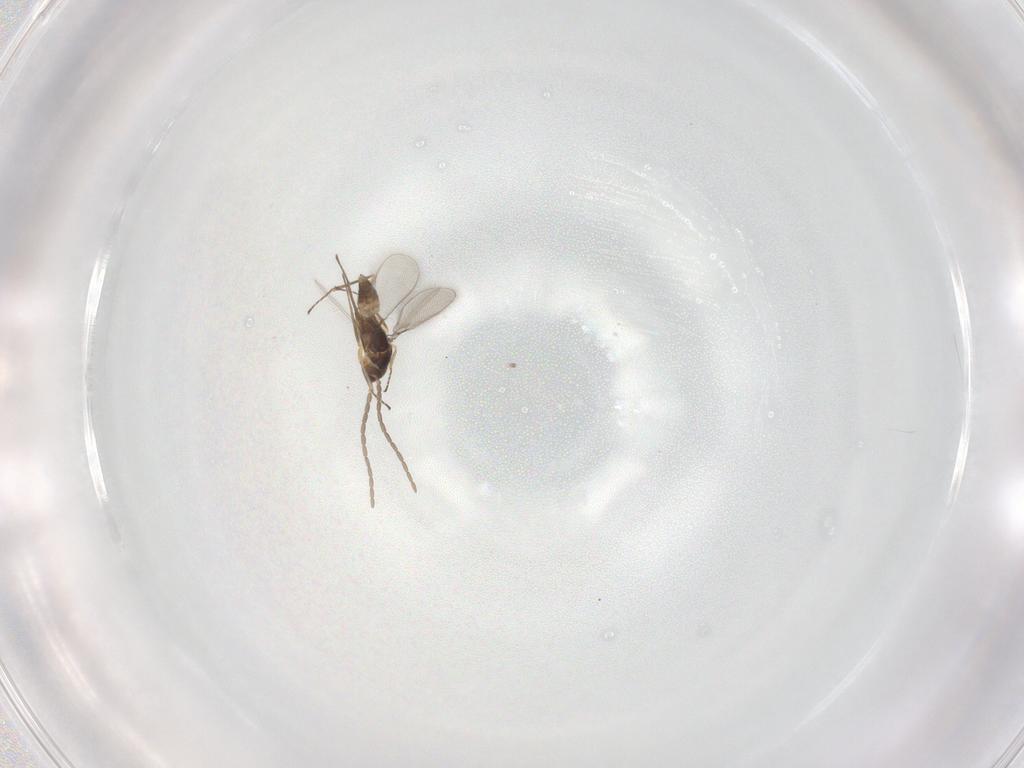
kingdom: Animalia
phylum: Arthropoda
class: Insecta
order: Hymenoptera
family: Mymaridae
